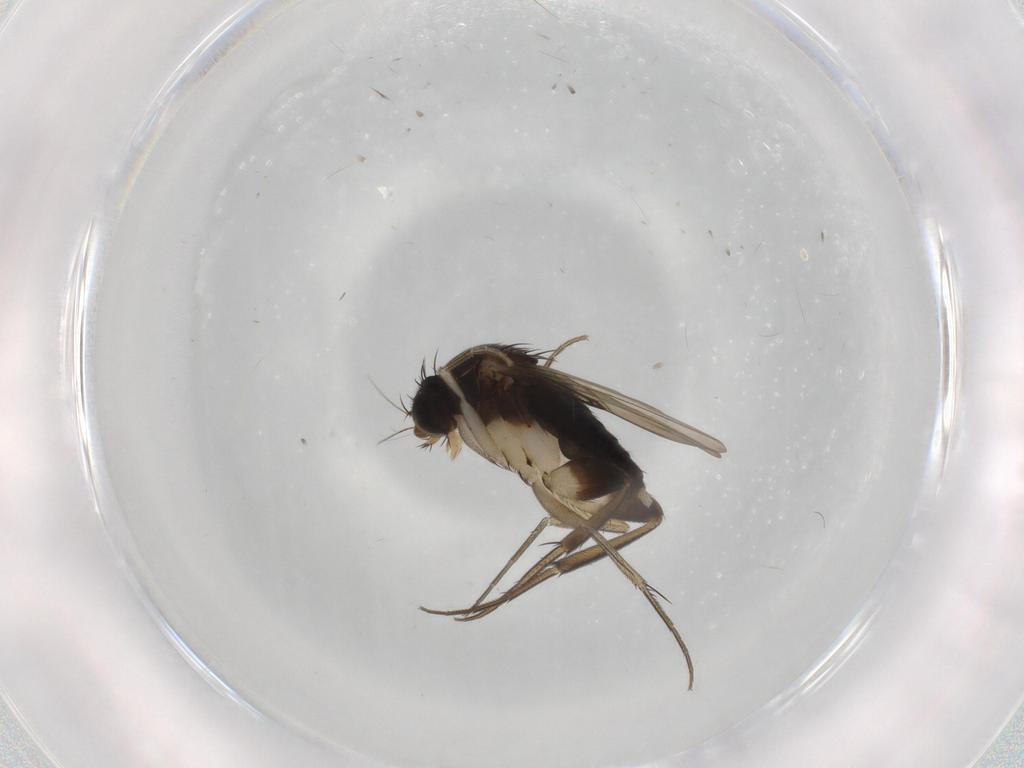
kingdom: Animalia
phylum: Arthropoda
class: Insecta
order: Diptera
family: Phoridae
